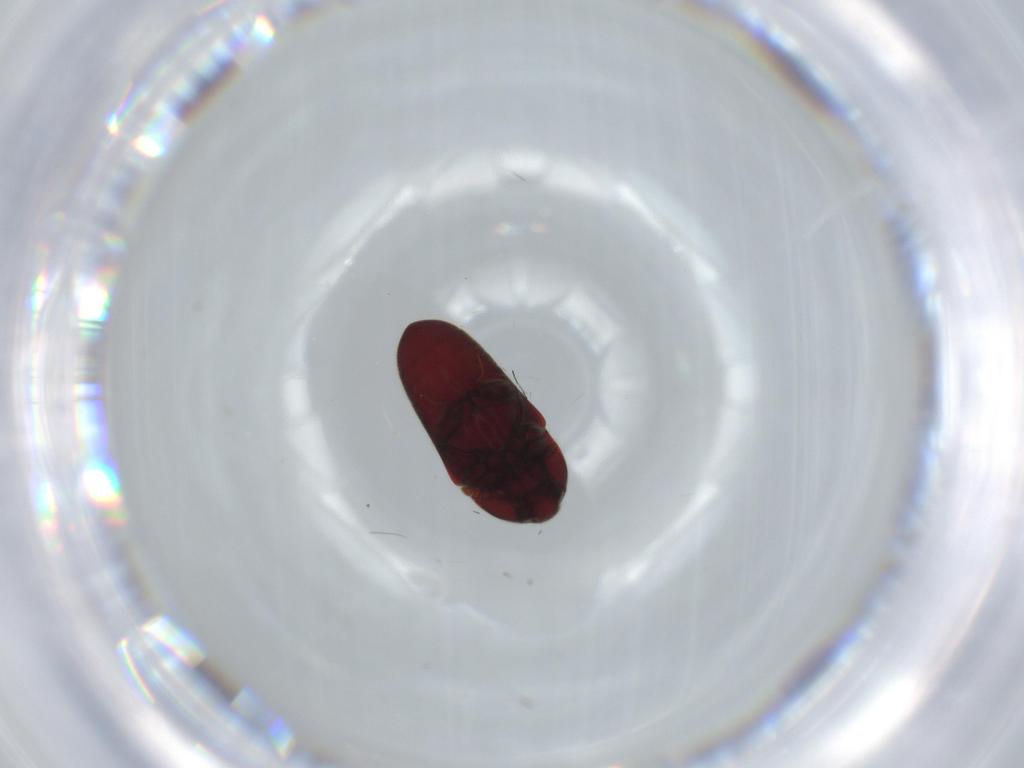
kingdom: Animalia
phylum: Arthropoda
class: Insecta
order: Coleoptera
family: Throscidae
